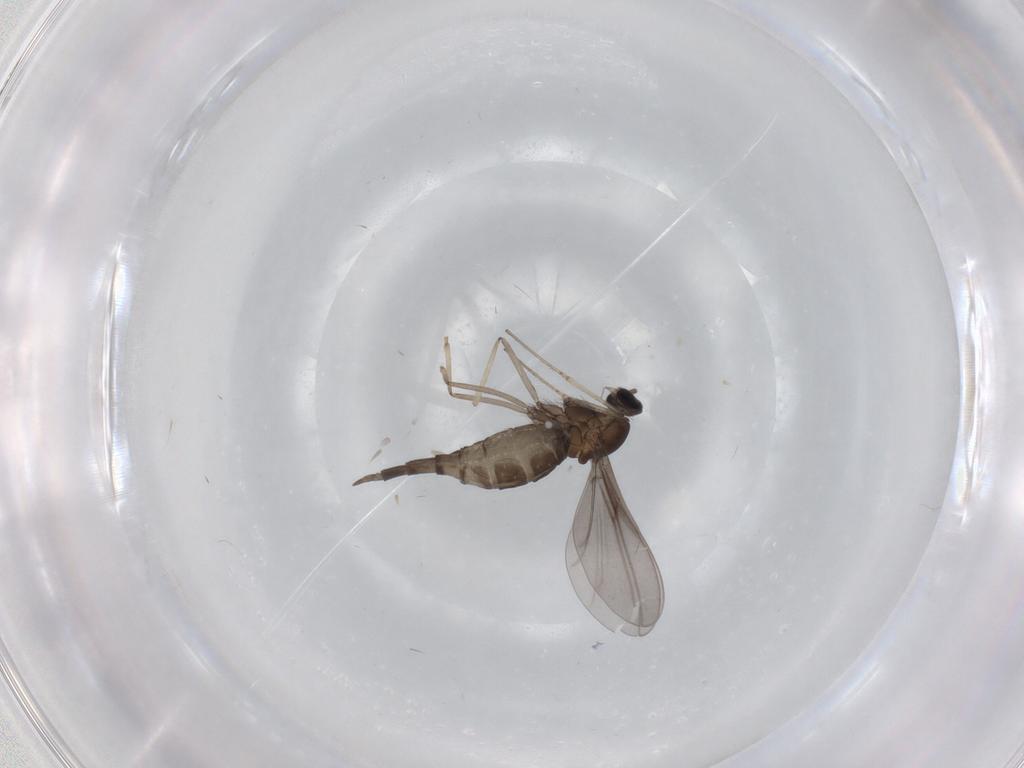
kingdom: Animalia
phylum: Arthropoda
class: Insecta
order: Diptera
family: Cecidomyiidae
